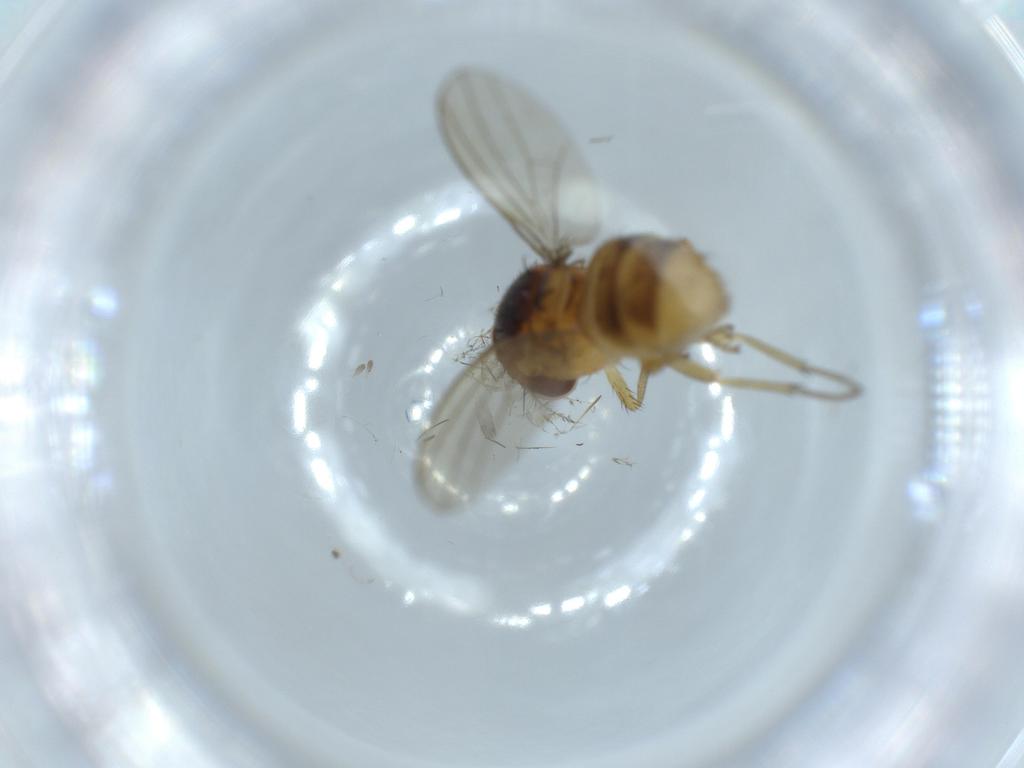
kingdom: Animalia
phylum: Arthropoda
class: Insecta
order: Diptera
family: Lauxaniidae
